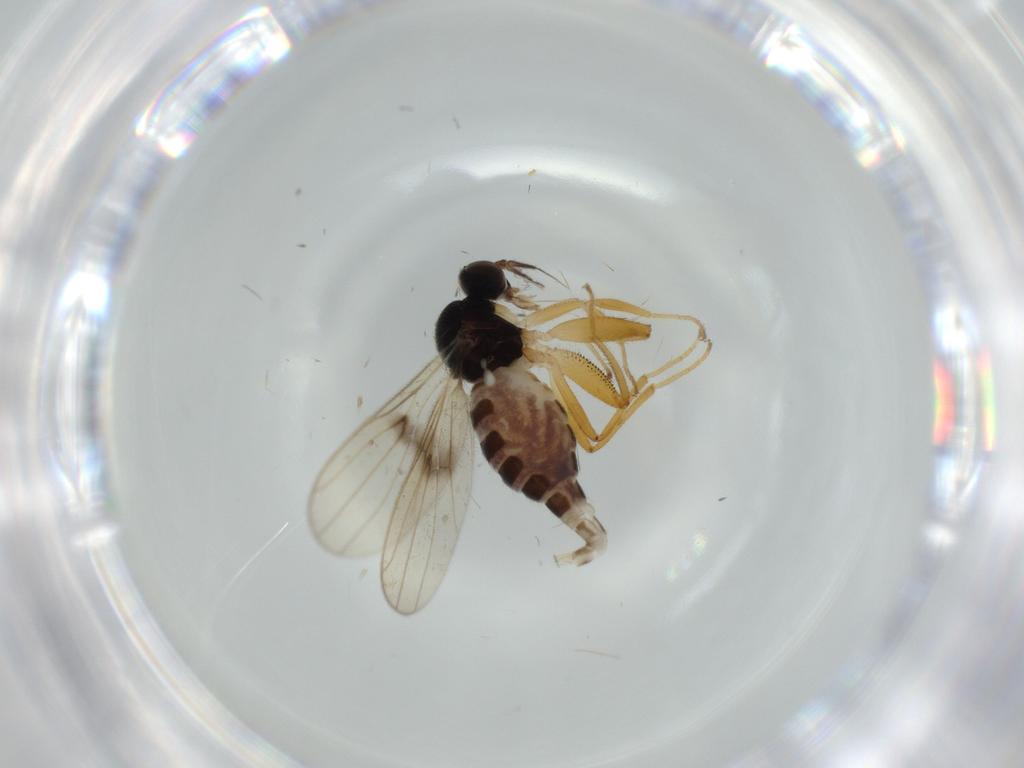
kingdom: Animalia
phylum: Arthropoda
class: Insecta
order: Diptera
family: Hybotidae
